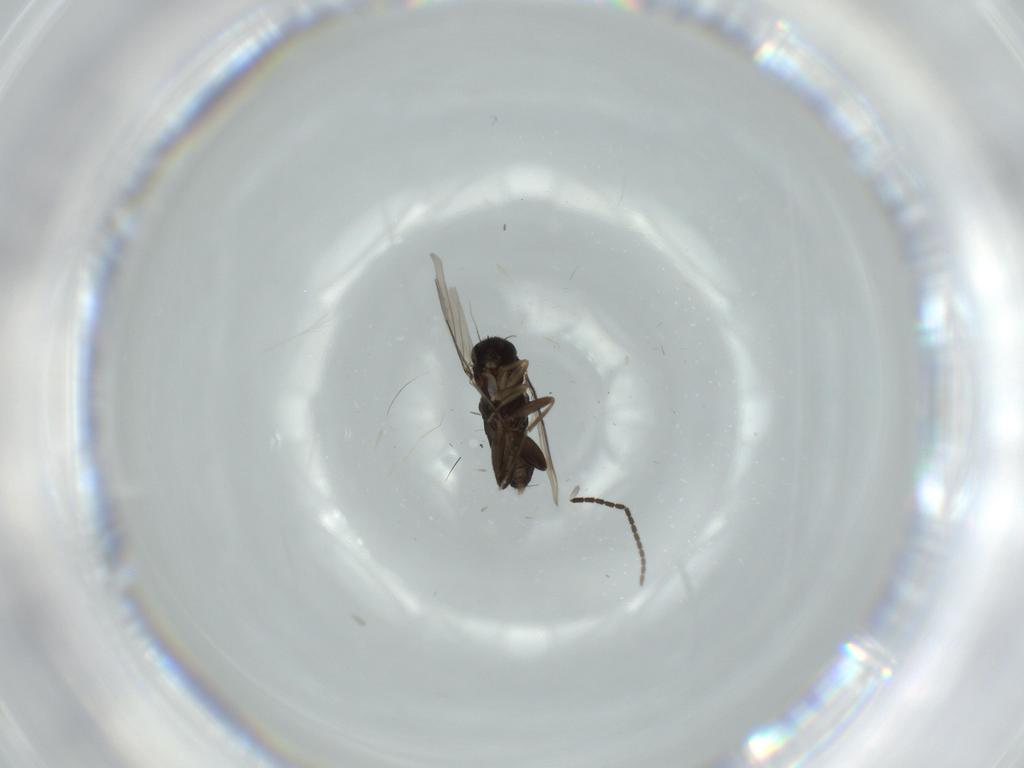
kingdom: Animalia
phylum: Arthropoda
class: Insecta
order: Diptera
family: Phoridae
